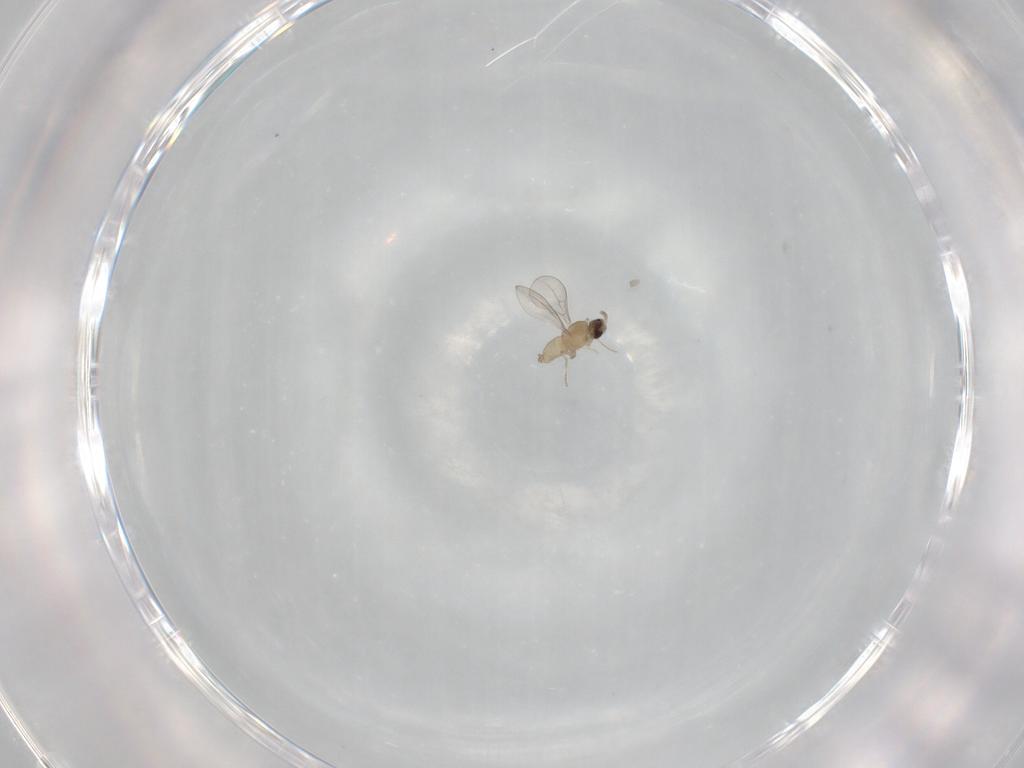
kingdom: Animalia
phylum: Arthropoda
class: Insecta
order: Diptera
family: Cecidomyiidae
